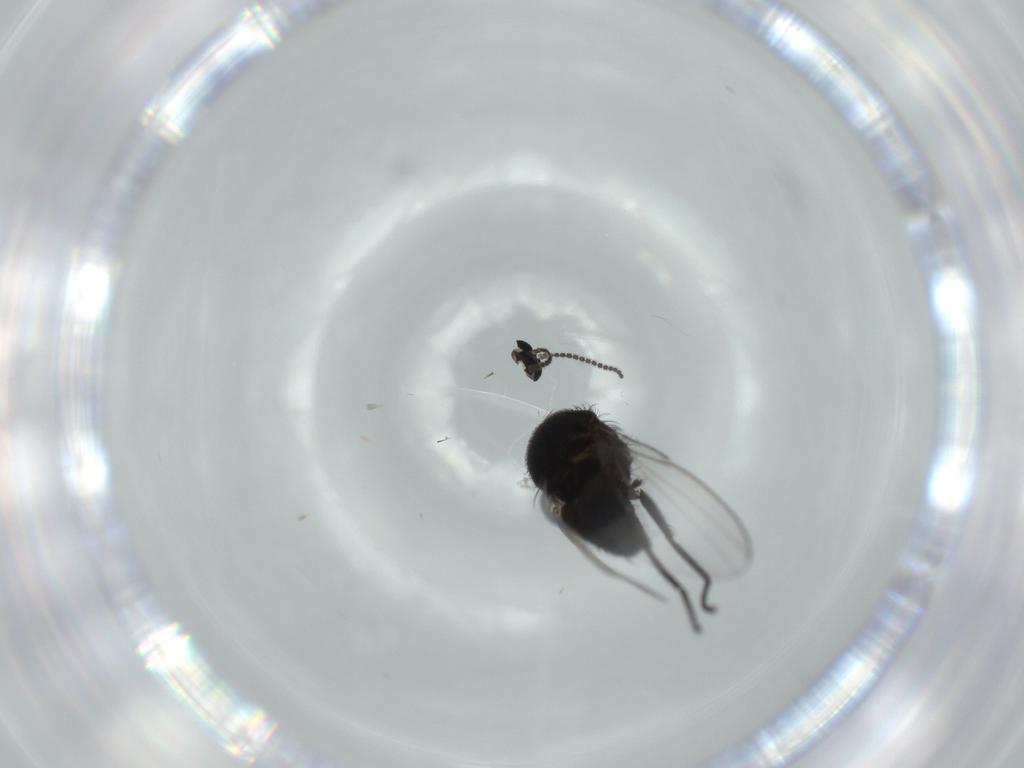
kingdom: Animalia
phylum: Arthropoda
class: Insecta
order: Diptera
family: Sciaridae
